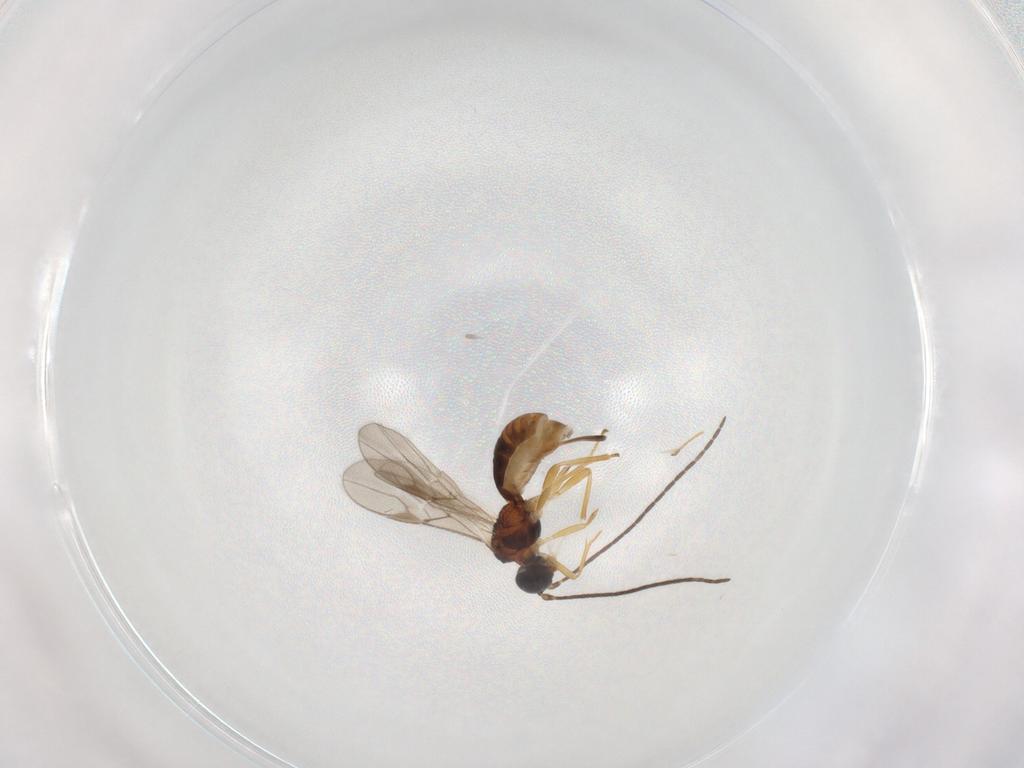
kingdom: Animalia
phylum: Arthropoda
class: Insecta
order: Hymenoptera
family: Braconidae
